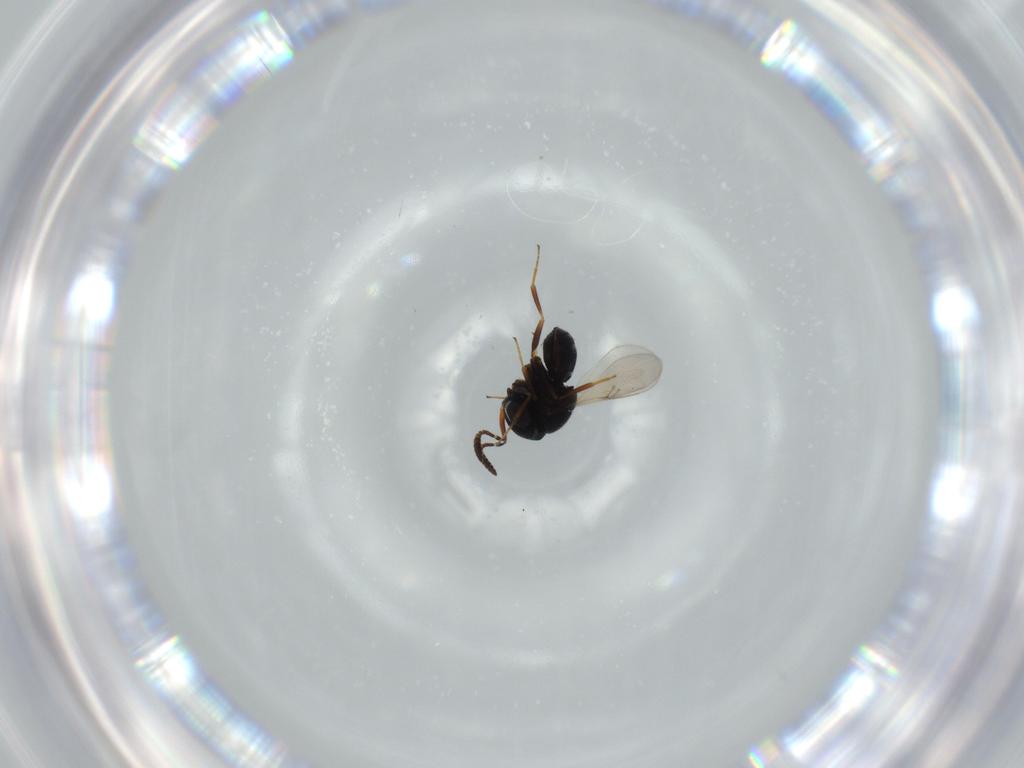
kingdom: Animalia
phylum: Arthropoda
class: Insecta
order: Hymenoptera
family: Scelionidae
